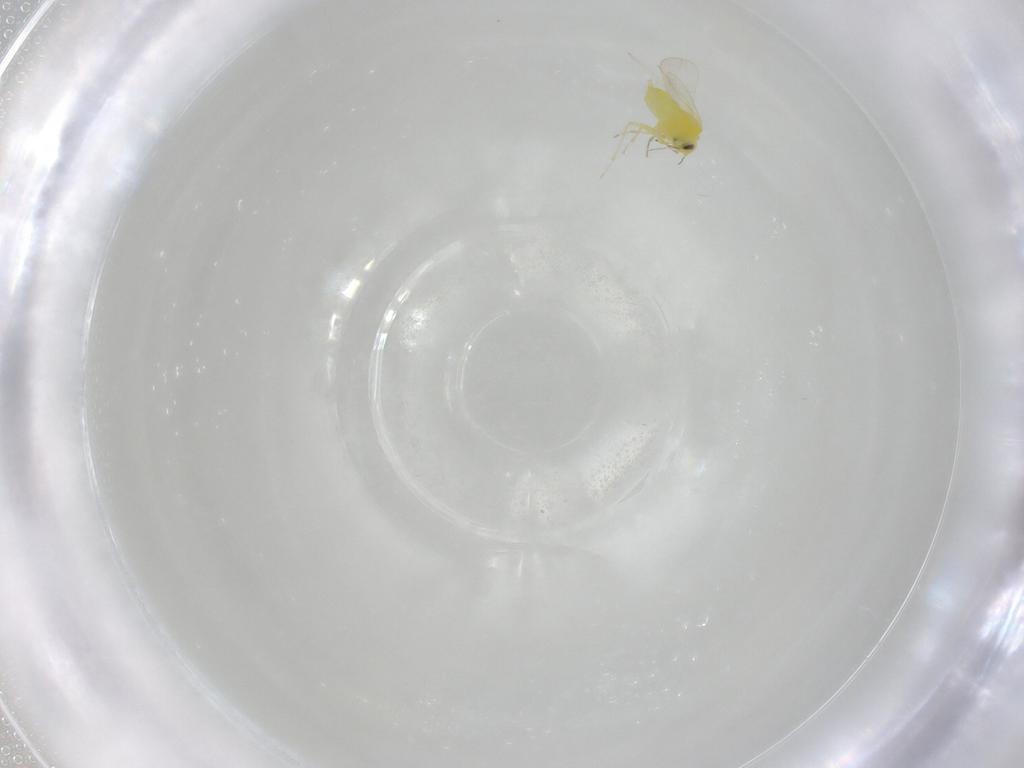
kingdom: Animalia
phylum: Arthropoda
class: Insecta
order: Hemiptera
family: Aleyrodidae
